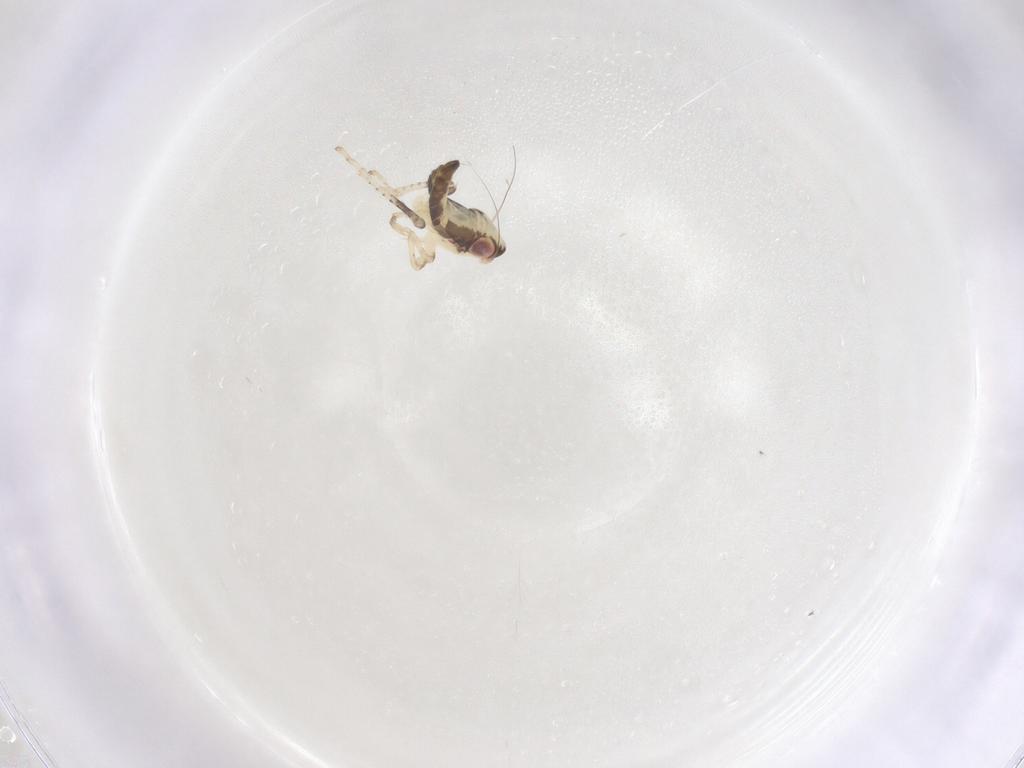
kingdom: Animalia
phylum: Arthropoda
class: Insecta
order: Hemiptera
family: Cicadellidae
